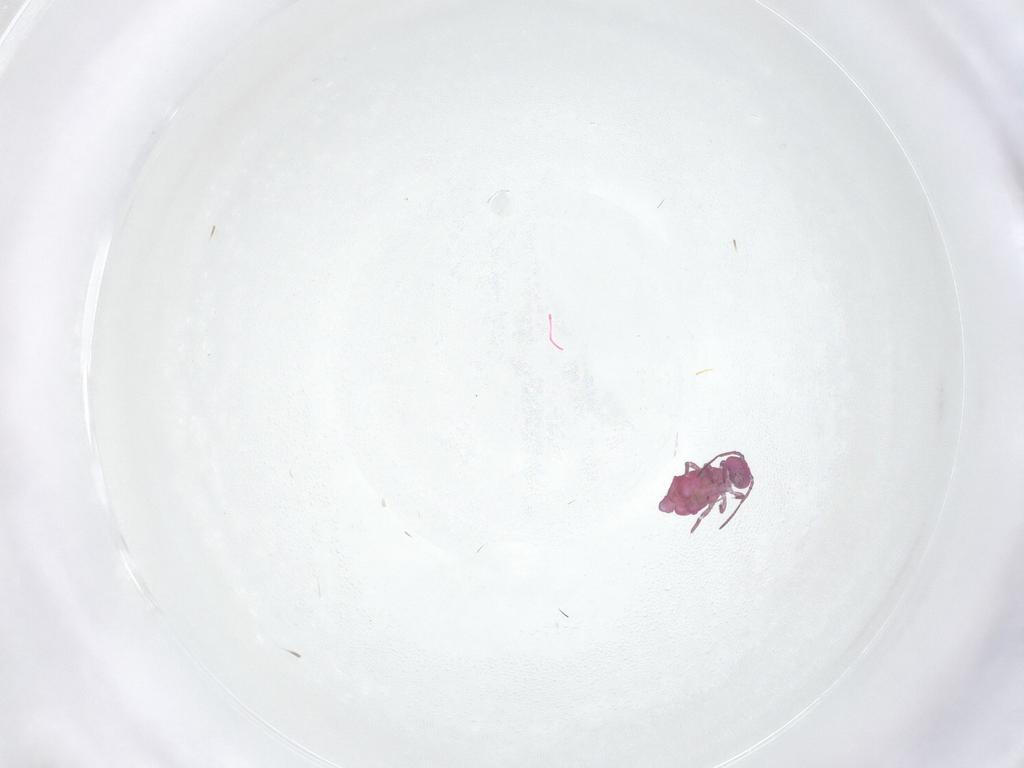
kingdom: Animalia
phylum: Arthropoda
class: Collembola
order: Symphypleona
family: Sminthuridae
